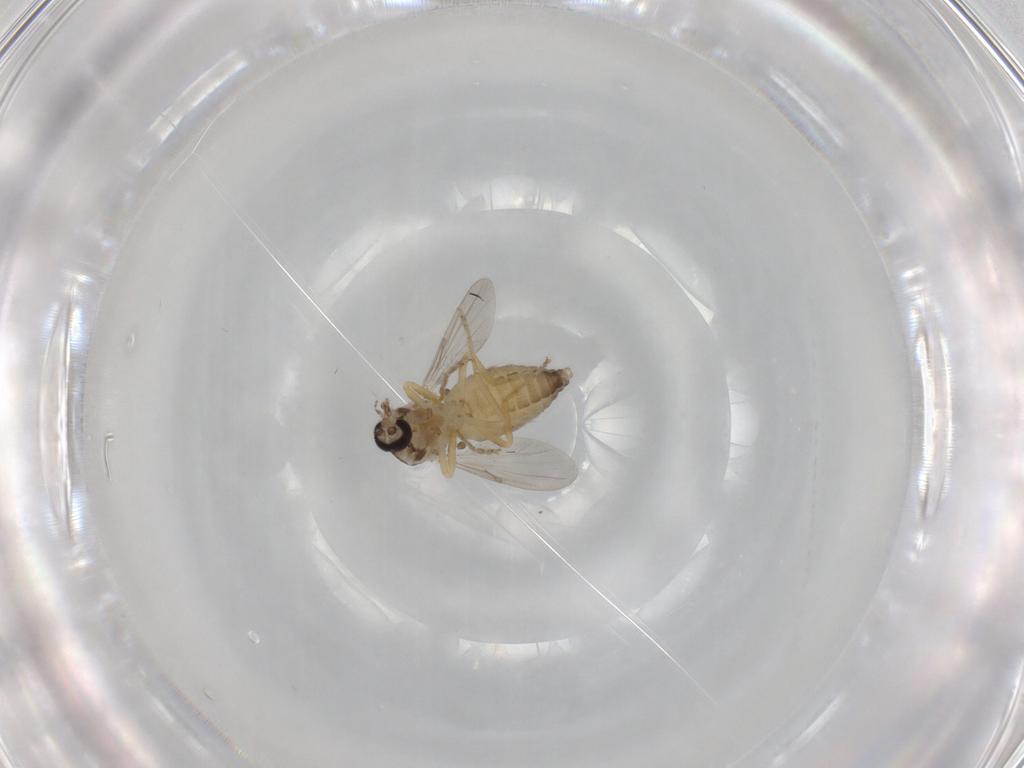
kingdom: Animalia
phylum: Arthropoda
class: Insecta
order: Diptera
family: Ceratopogonidae
